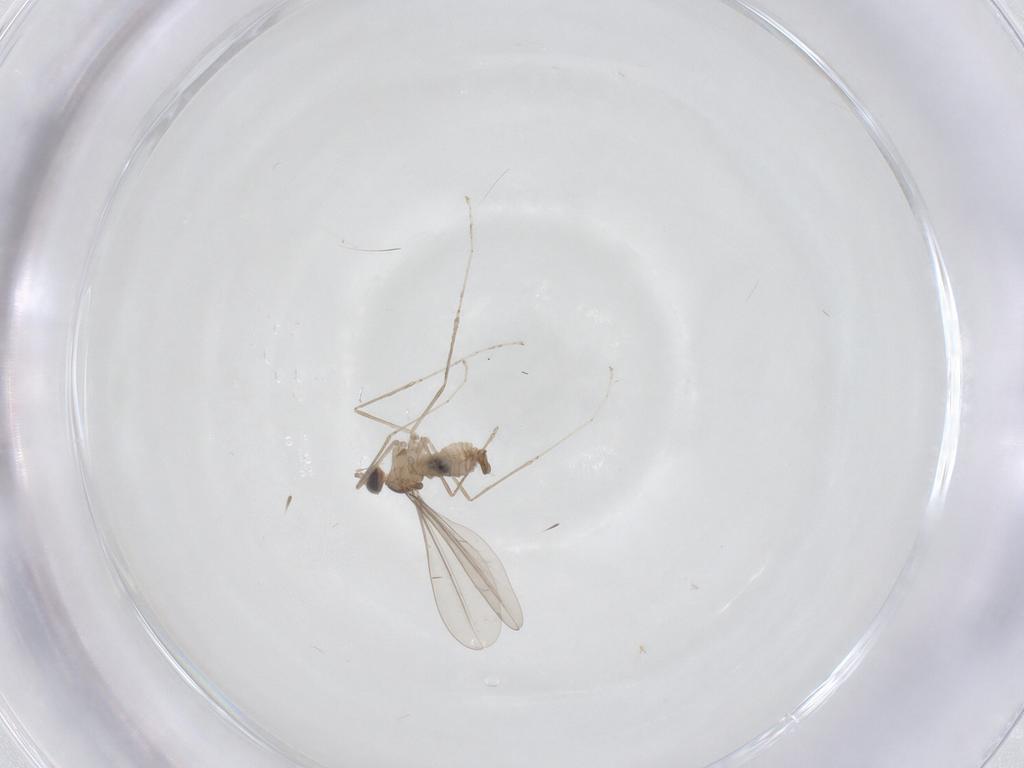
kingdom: Animalia
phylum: Arthropoda
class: Insecta
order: Diptera
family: Cecidomyiidae
